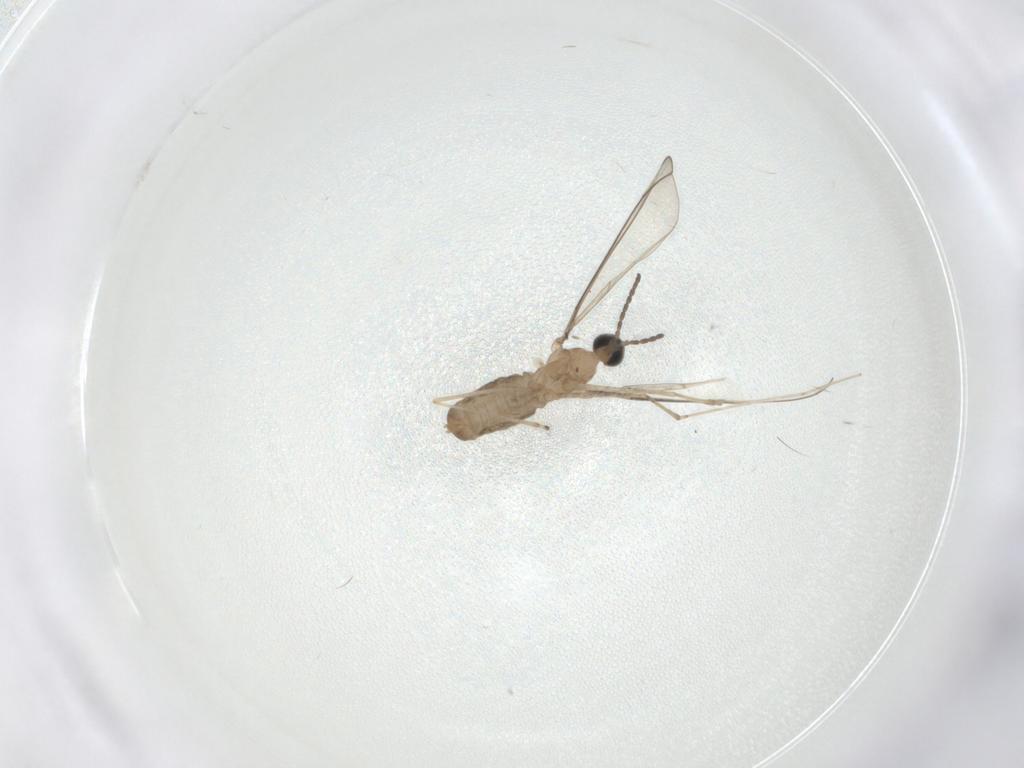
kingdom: Animalia
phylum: Arthropoda
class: Insecta
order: Diptera
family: Cecidomyiidae
